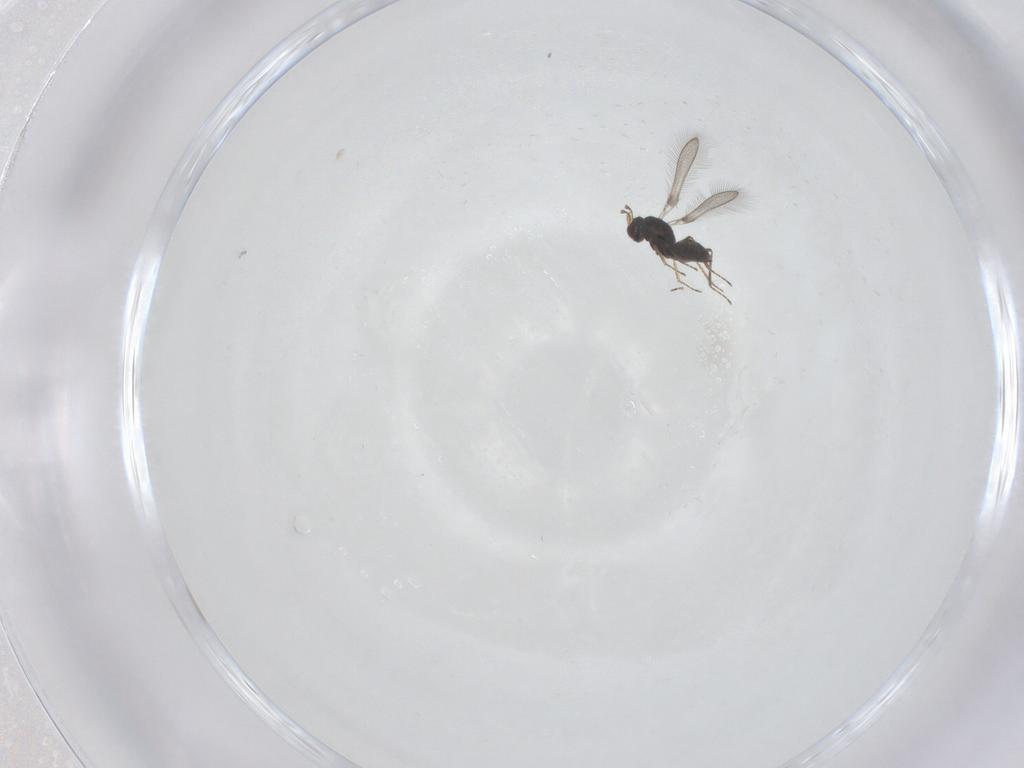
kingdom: Animalia
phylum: Arthropoda
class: Insecta
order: Hymenoptera
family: Mymaridae
